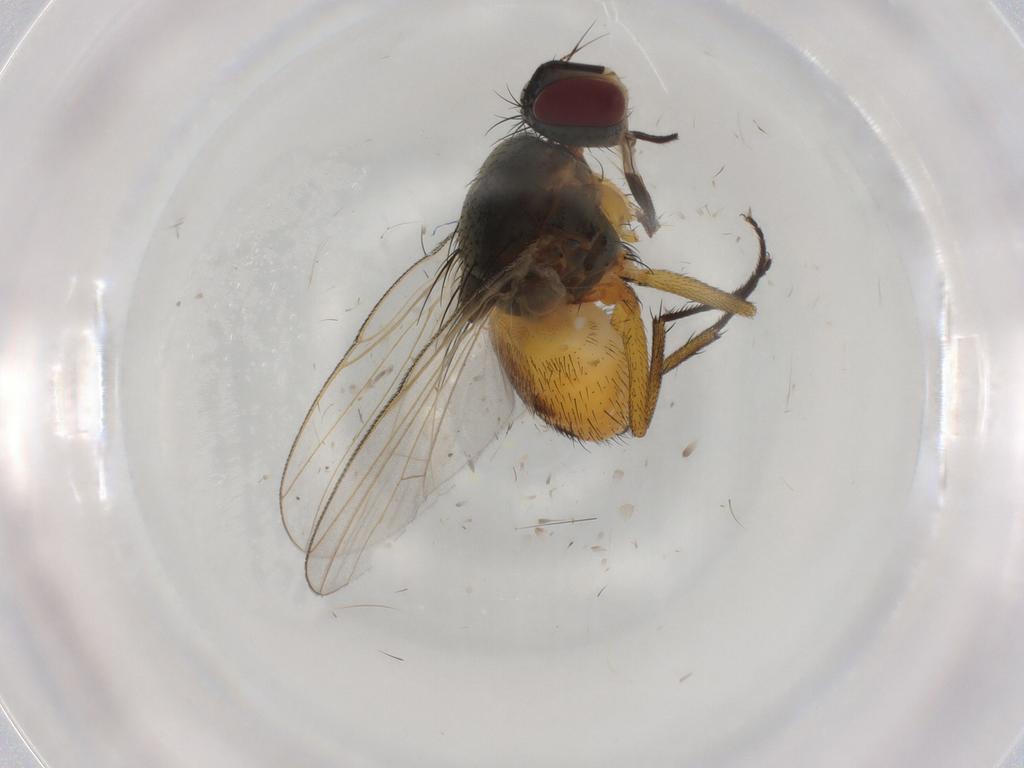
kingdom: Animalia
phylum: Arthropoda
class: Insecta
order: Diptera
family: Muscidae
